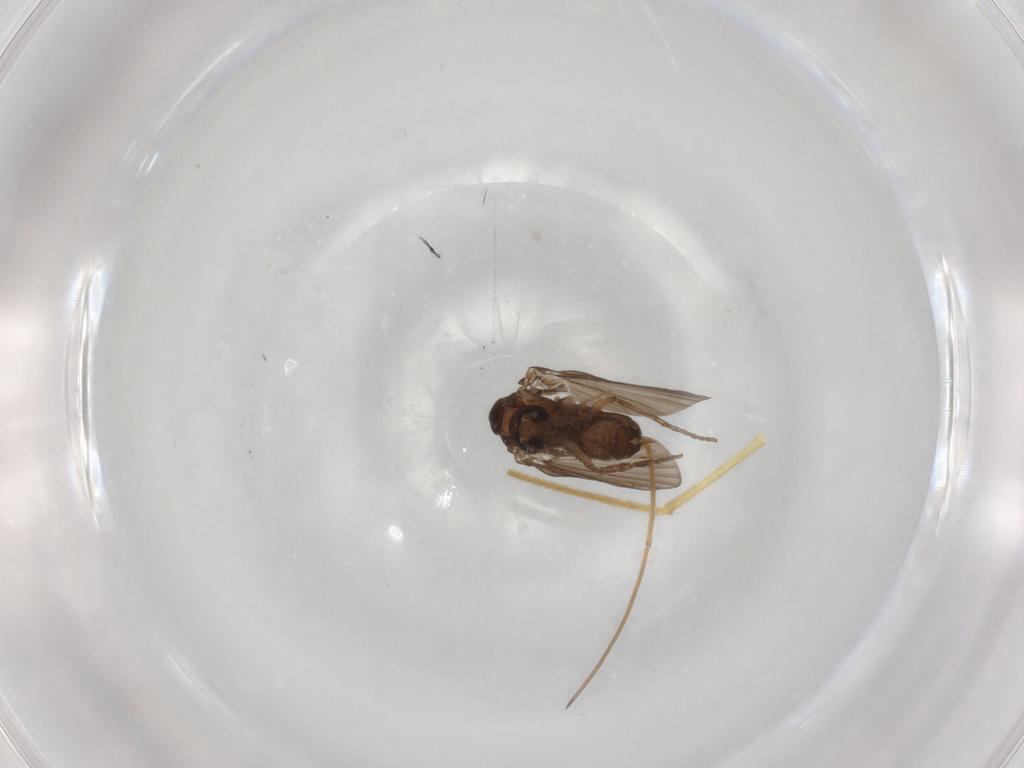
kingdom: Animalia
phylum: Arthropoda
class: Insecta
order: Diptera
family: Psychodidae
